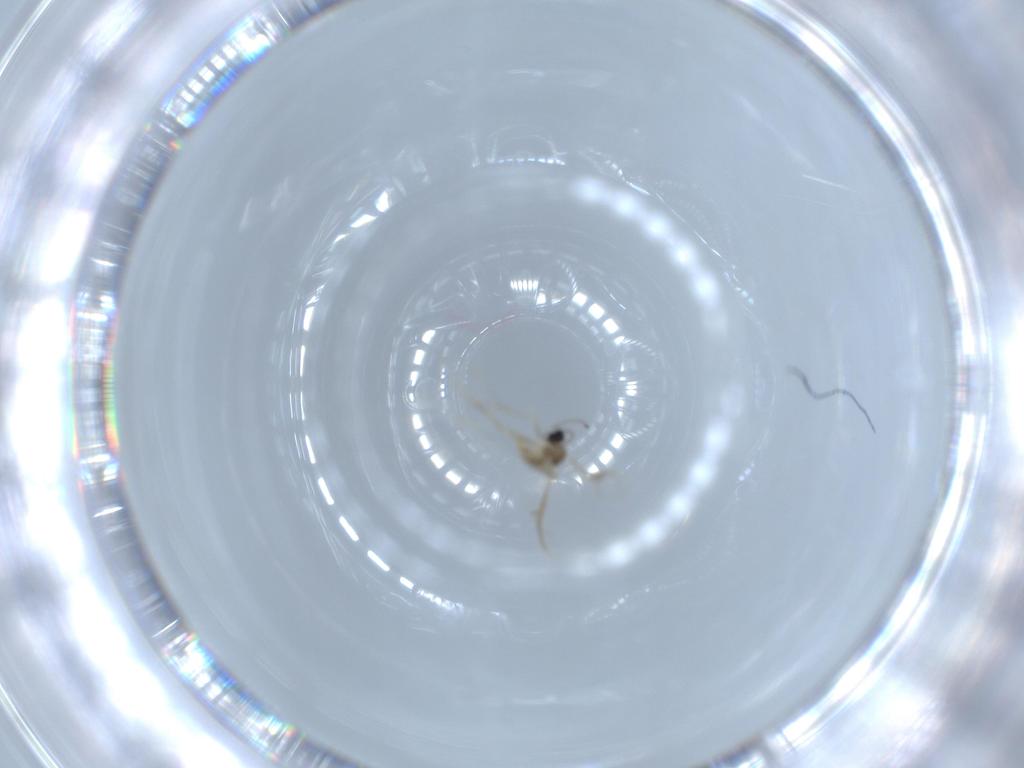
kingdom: Animalia
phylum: Arthropoda
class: Insecta
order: Diptera
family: Cecidomyiidae
